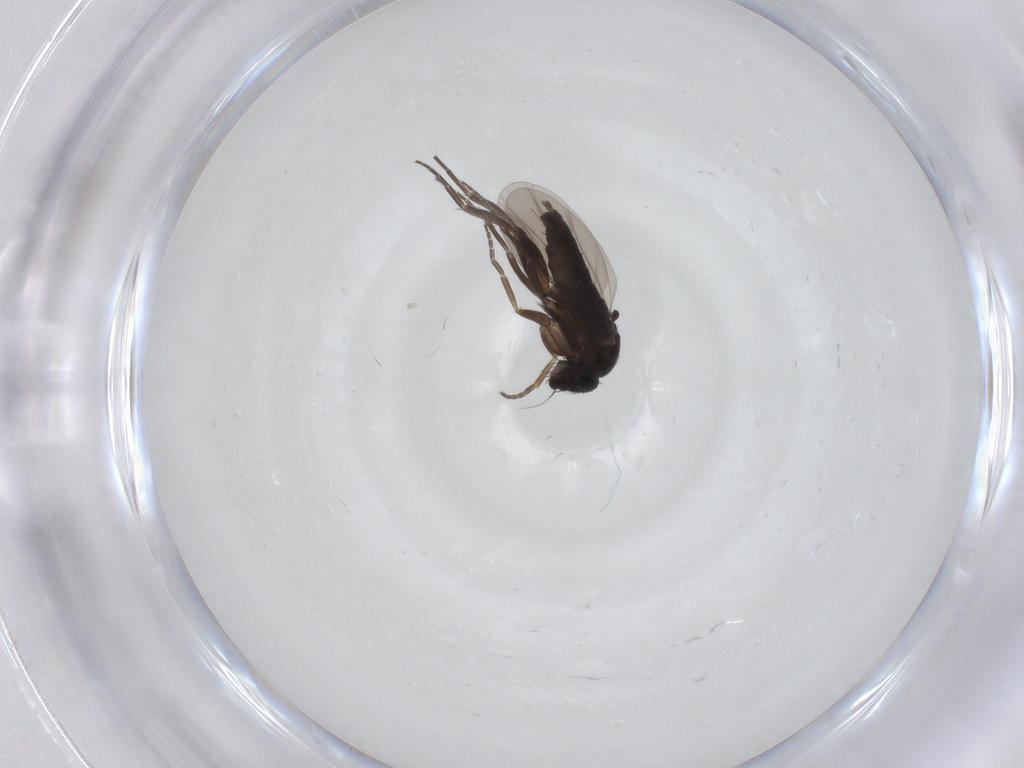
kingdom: Animalia
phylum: Arthropoda
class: Insecta
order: Diptera
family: Phoridae
